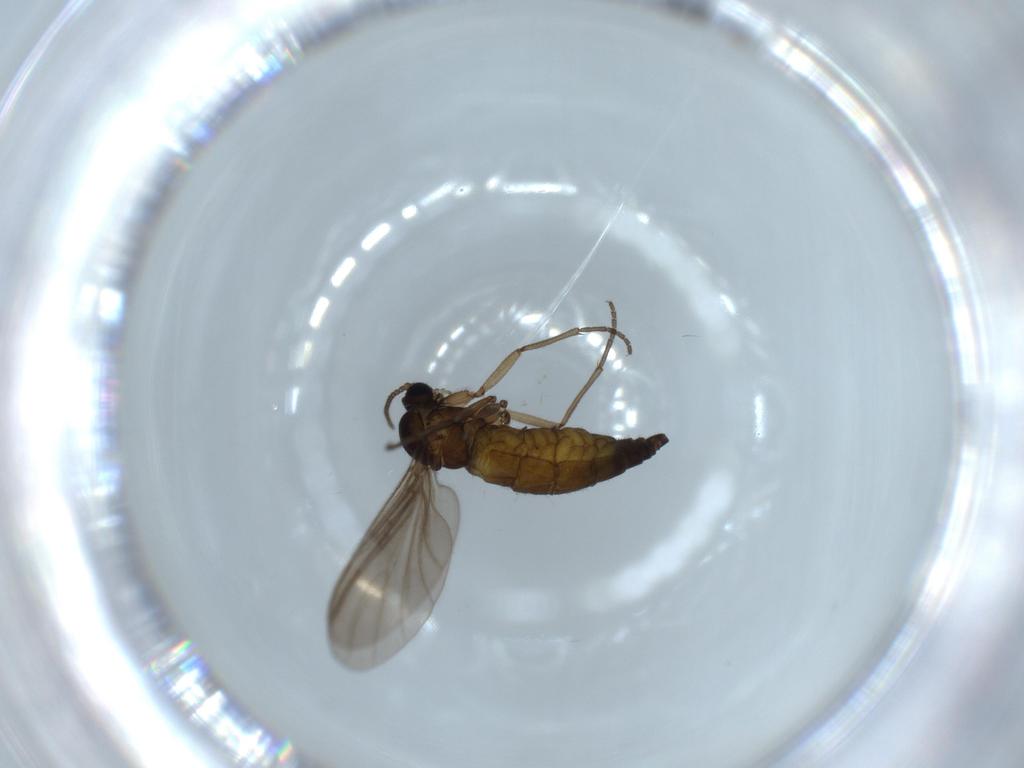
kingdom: Animalia
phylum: Arthropoda
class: Insecta
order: Diptera
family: Sciaridae
